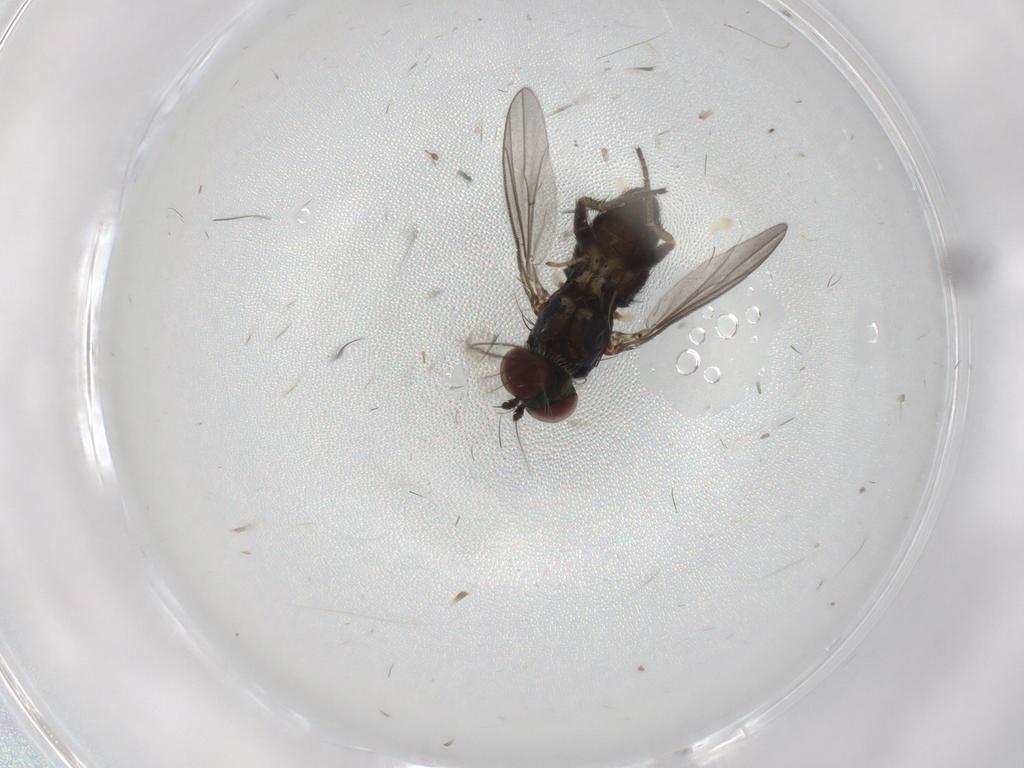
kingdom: Animalia
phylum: Arthropoda
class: Insecta
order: Diptera
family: Dolichopodidae
